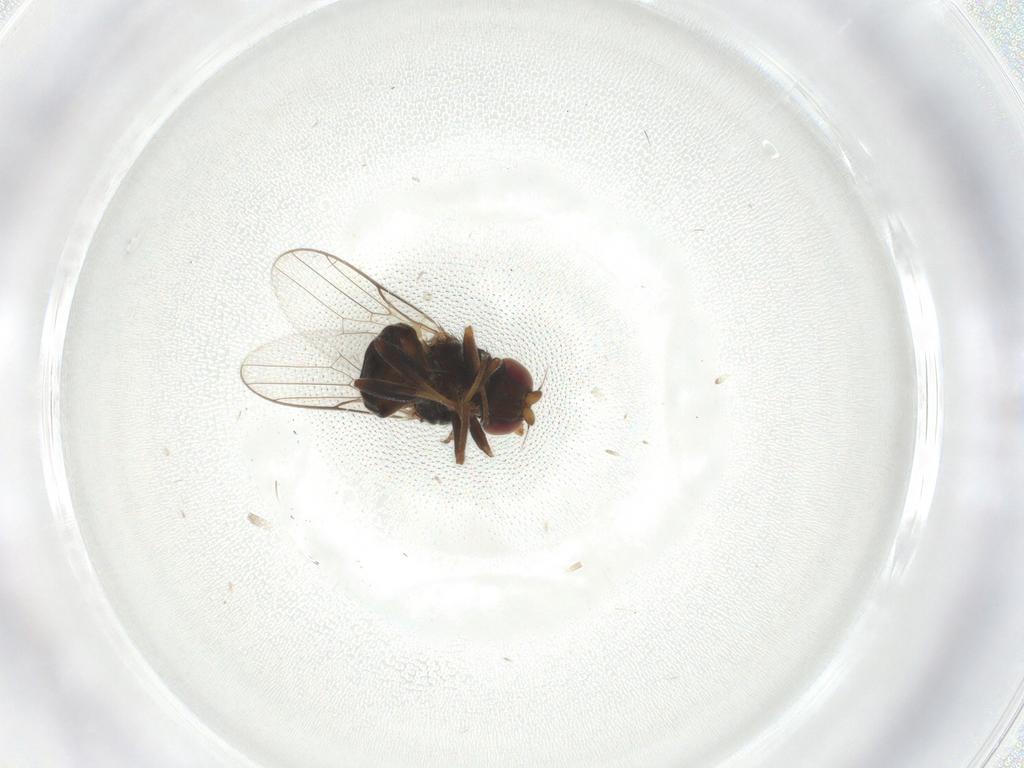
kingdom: Animalia
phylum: Arthropoda
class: Insecta
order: Diptera
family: Chloropidae
